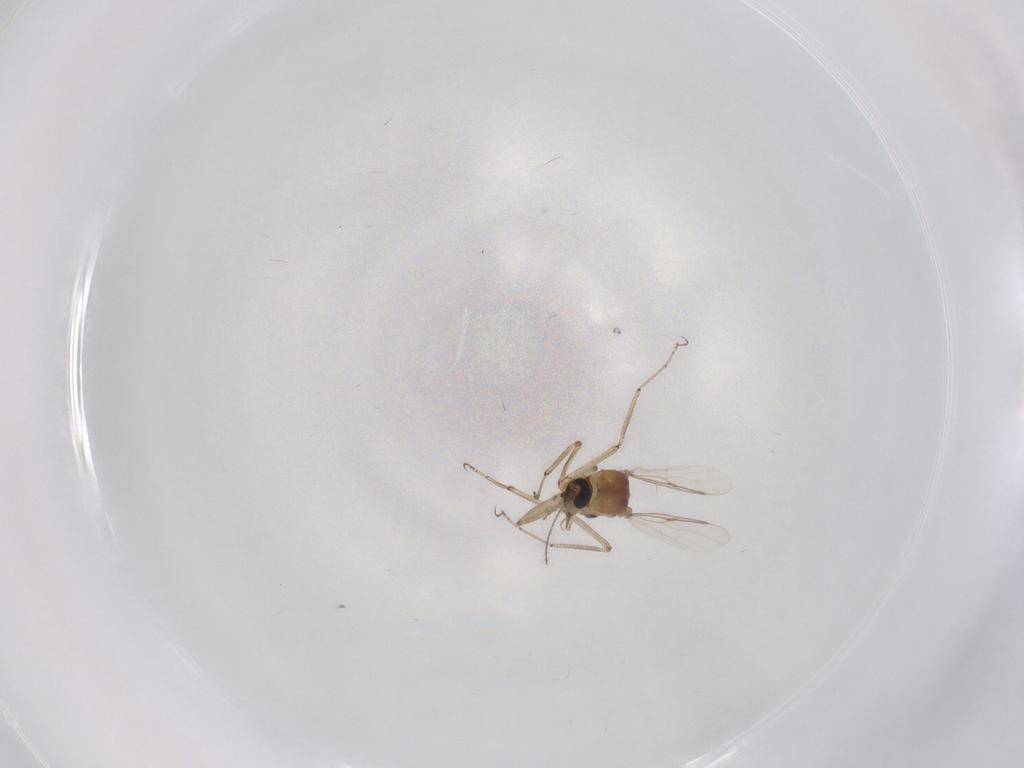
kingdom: Animalia
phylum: Arthropoda
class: Insecta
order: Diptera
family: Ceratopogonidae
